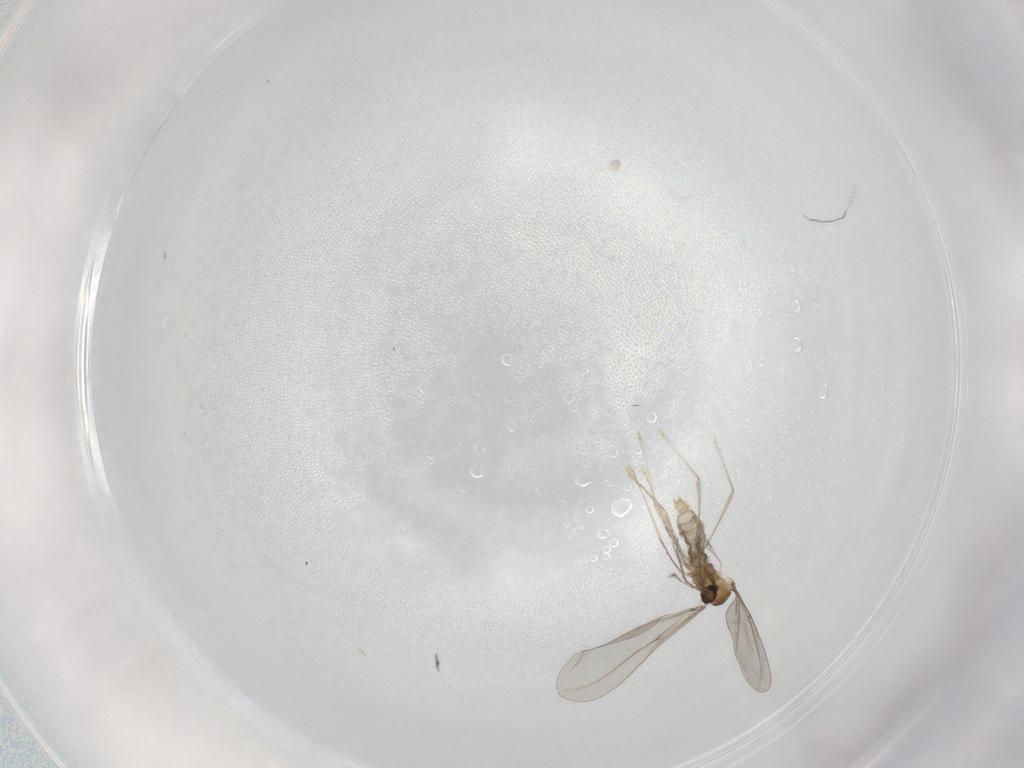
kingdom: Animalia
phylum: Arthropoda
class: Insecta
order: Diptera
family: Cecidomyiidae
